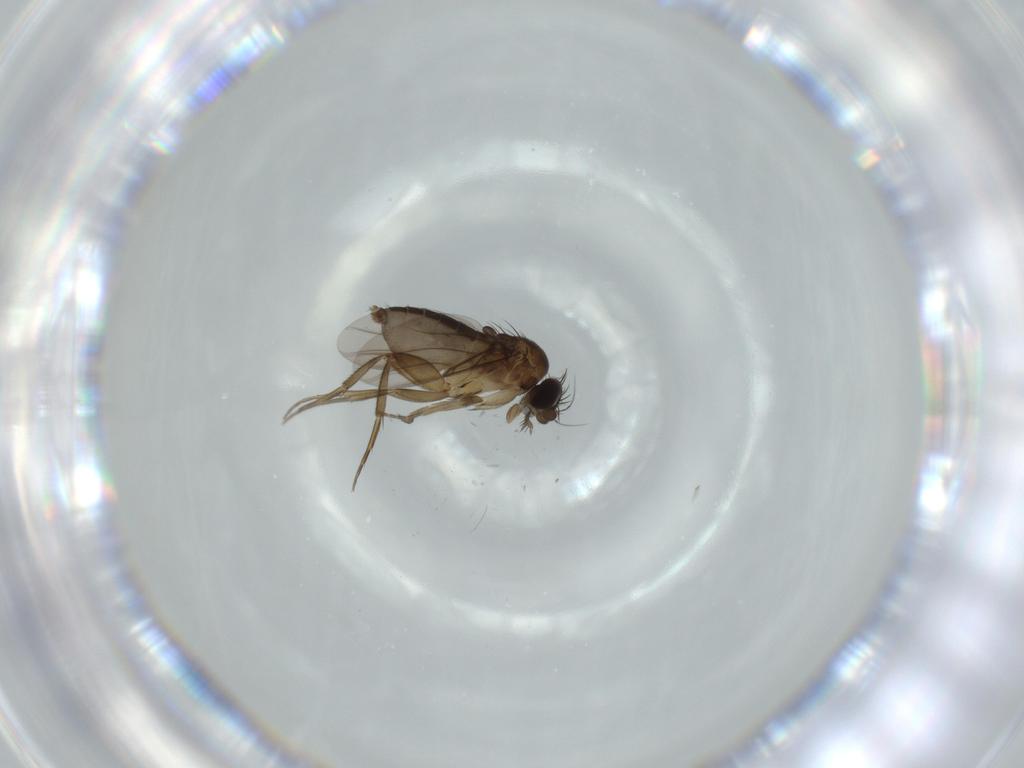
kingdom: Animalia
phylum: Arthropoda
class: Insecta
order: Diptera
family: Phoridae
